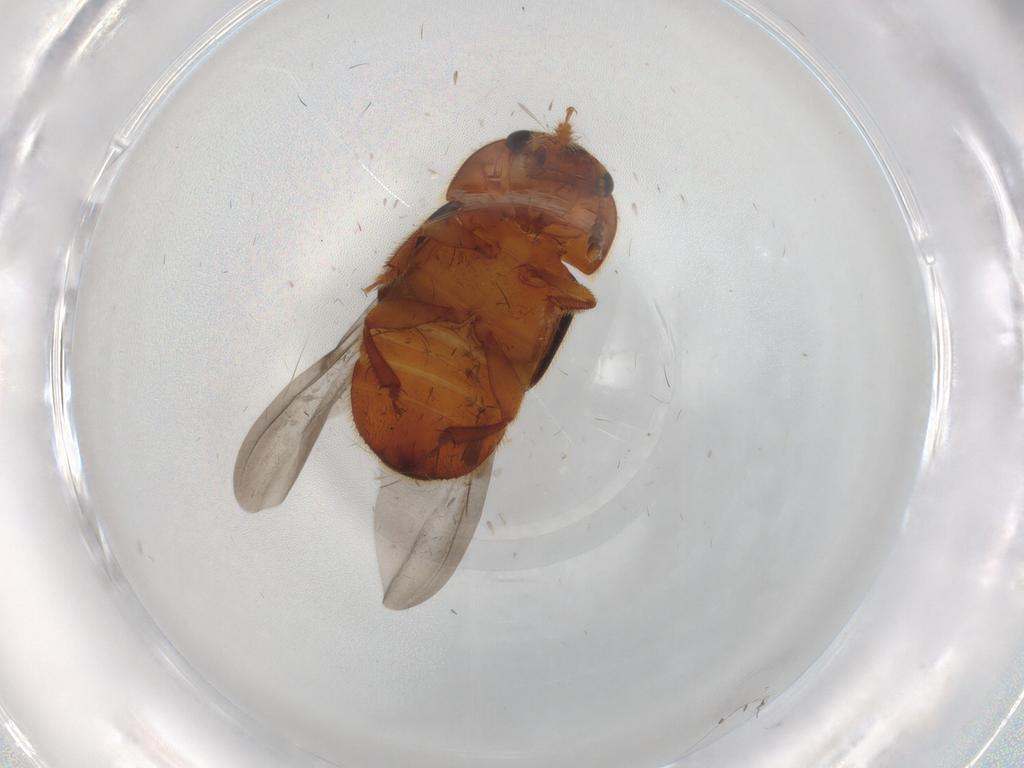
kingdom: Animalia
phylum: Arthropoda
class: Insecta
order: Coleoptera
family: Nitidulidae
